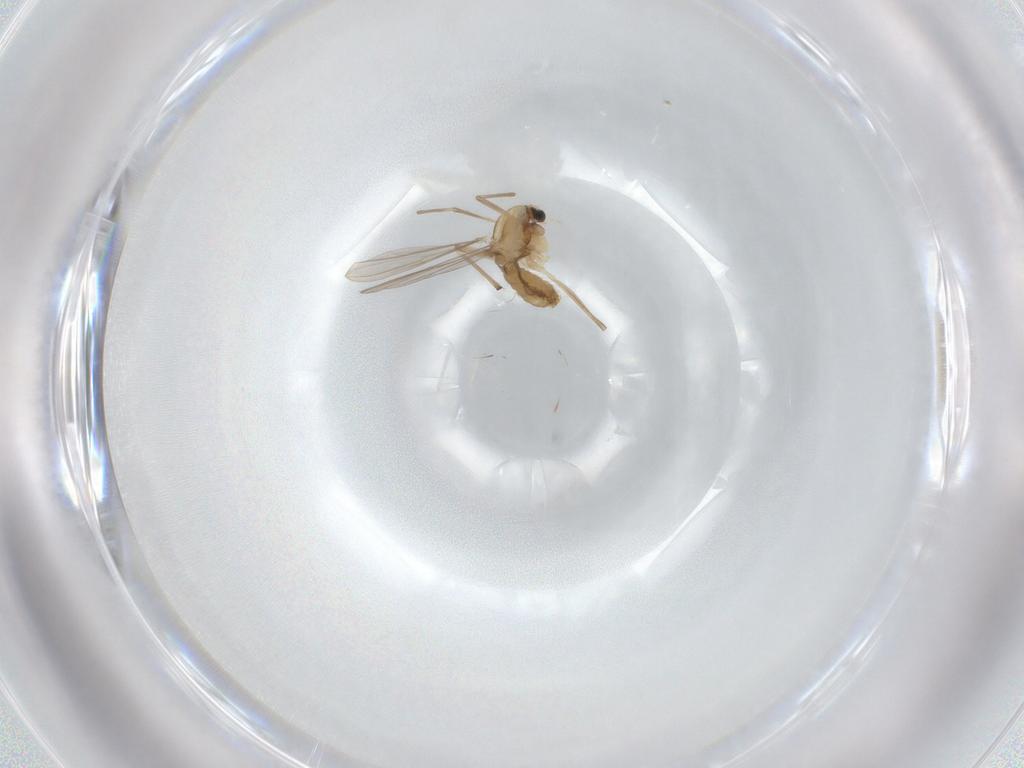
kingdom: Animalia
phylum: Arthropoda
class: Insecta
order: Diptera
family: Chironomidae
